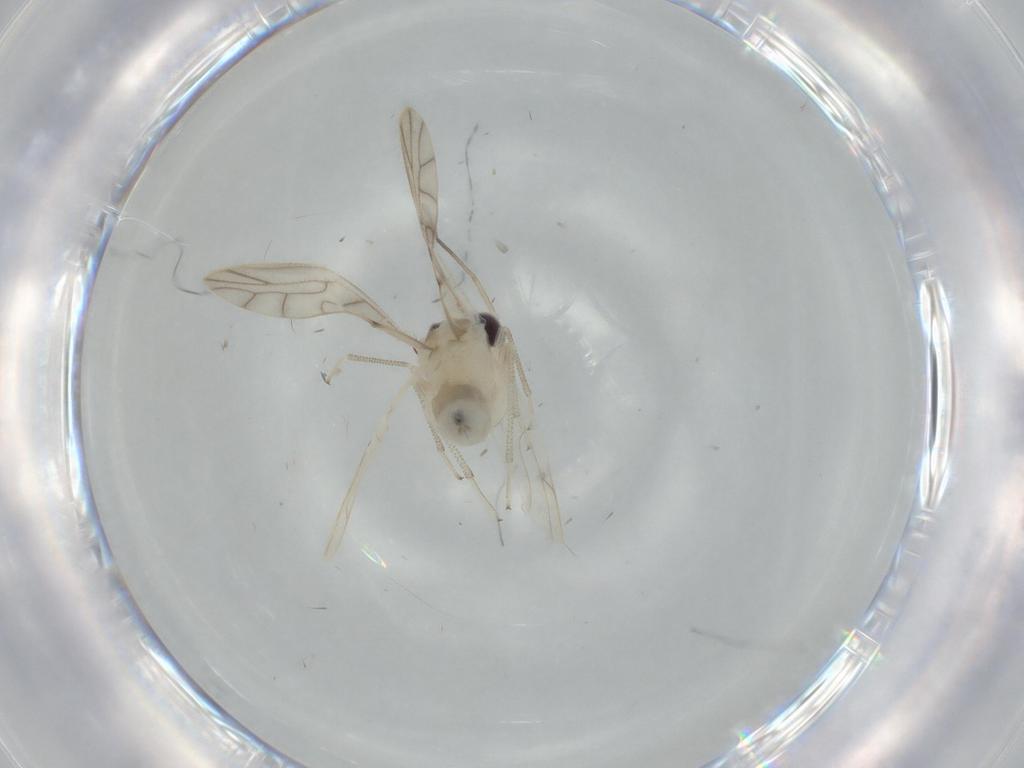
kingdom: Animalia
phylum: Arthropoda
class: Insecta
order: Psocodea
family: Caeciliusidae
